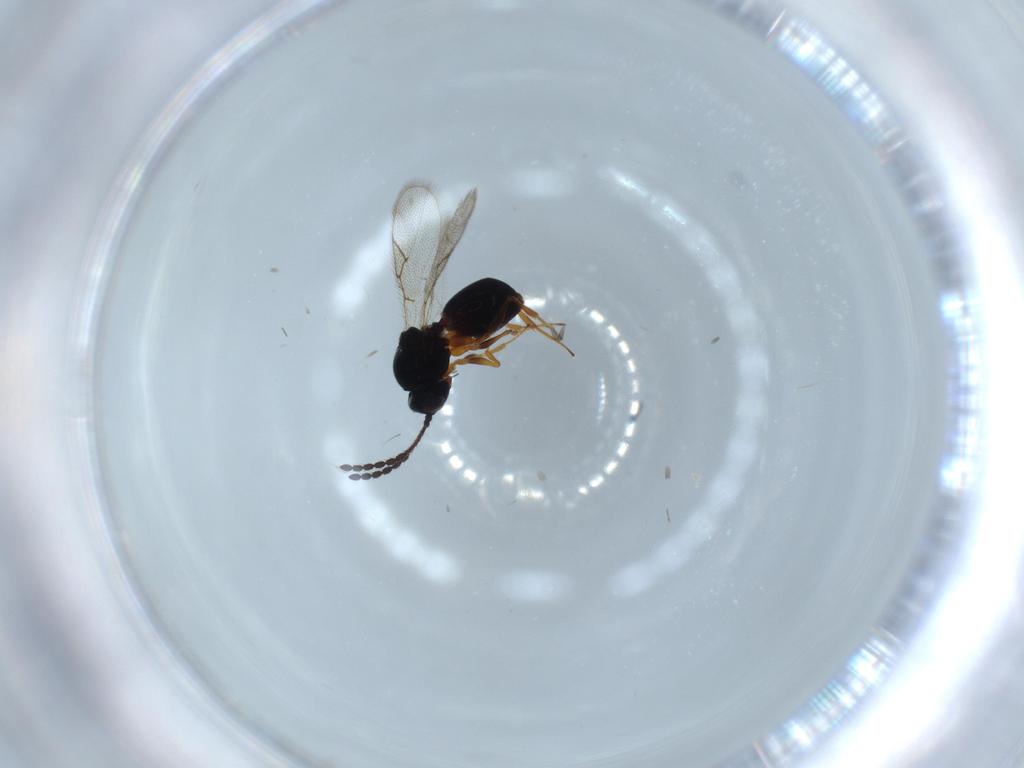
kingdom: Animalia
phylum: Arthropoda
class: Insecta
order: Hymenoptera
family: Figitidae
